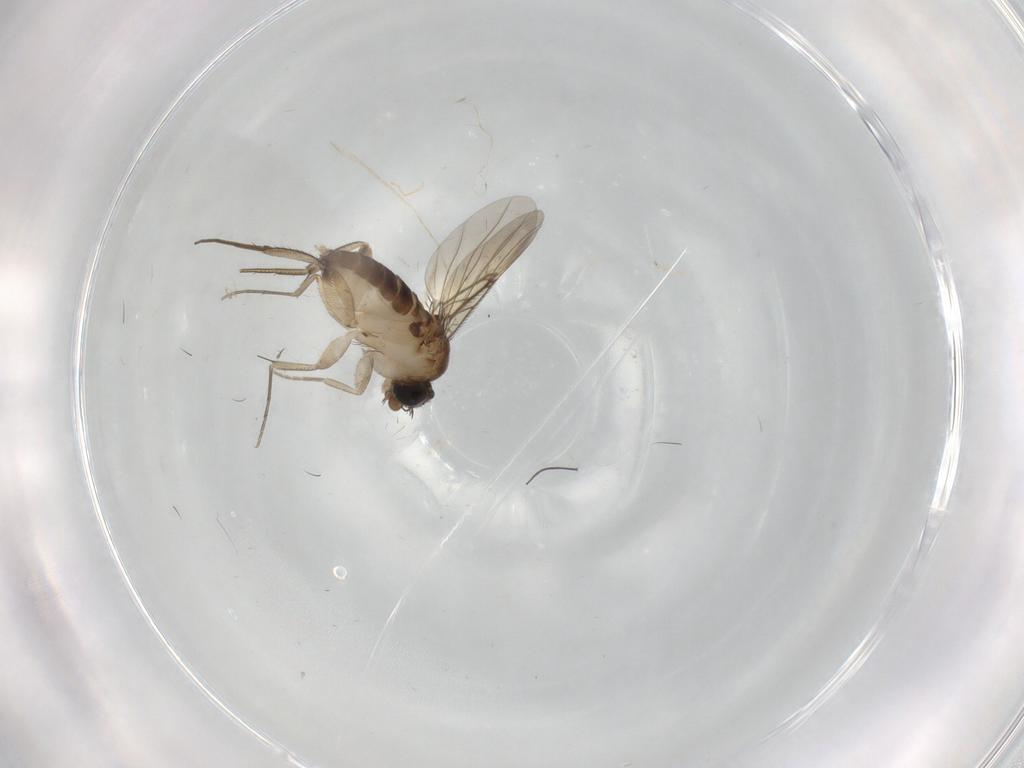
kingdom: Animalia
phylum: Arthropoda
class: Insecta
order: Diptera
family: Phoridae
